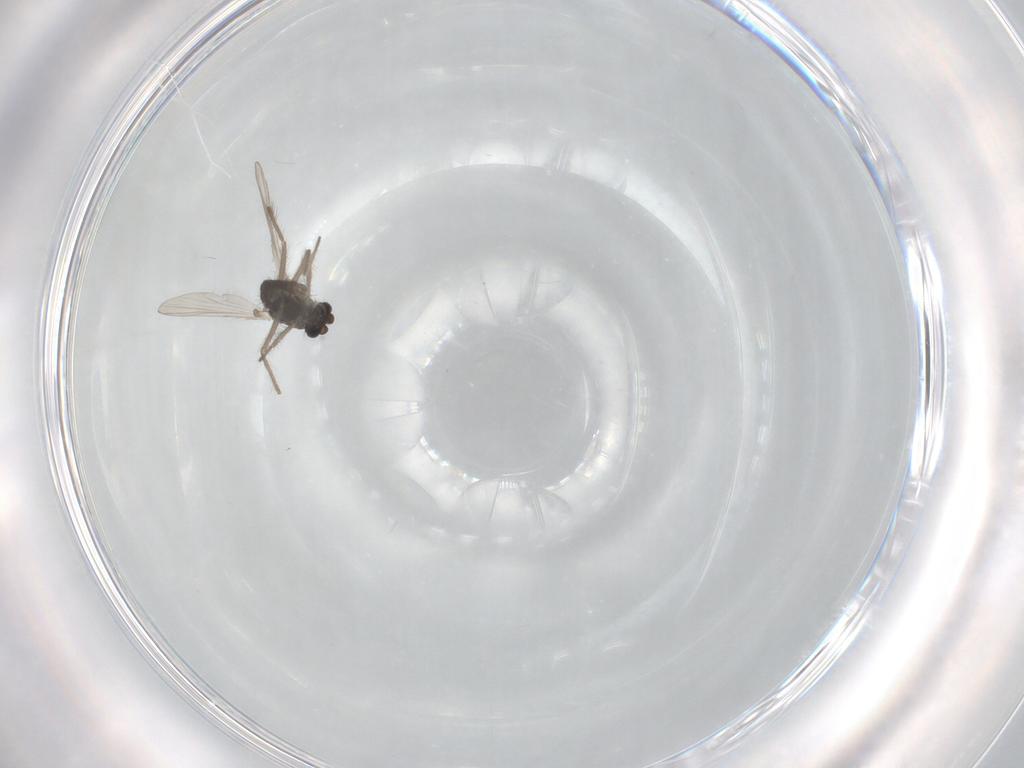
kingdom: Animalia
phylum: Arthropoda
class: Insecta
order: Diptera
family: Chironomidae
